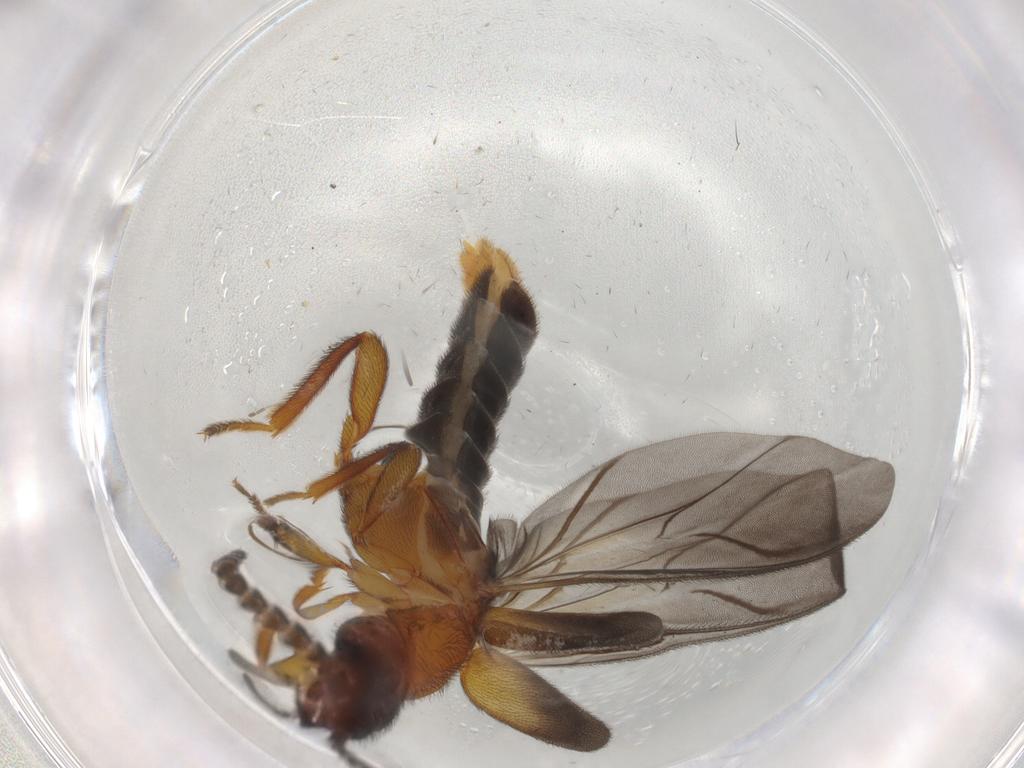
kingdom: Animalia
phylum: Arthropoda
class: Insecta
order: Coleoptera
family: Omethidae
